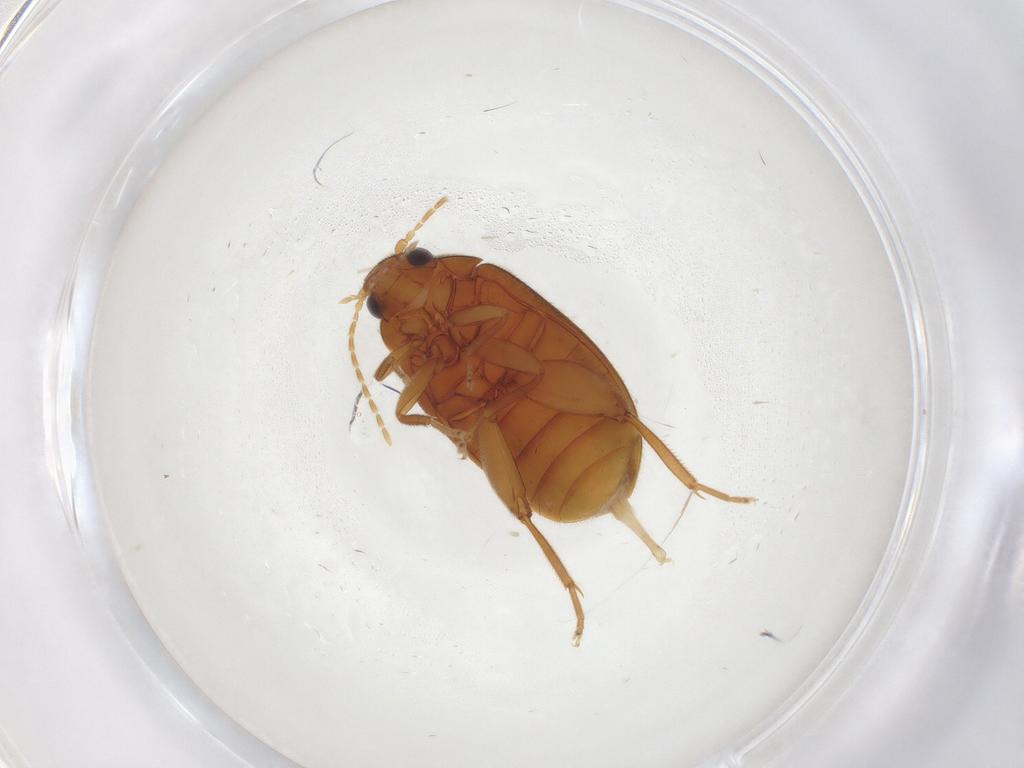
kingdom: Animalia
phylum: Arthropoda
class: Insecta
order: Coleoptera
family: Scirtidae
